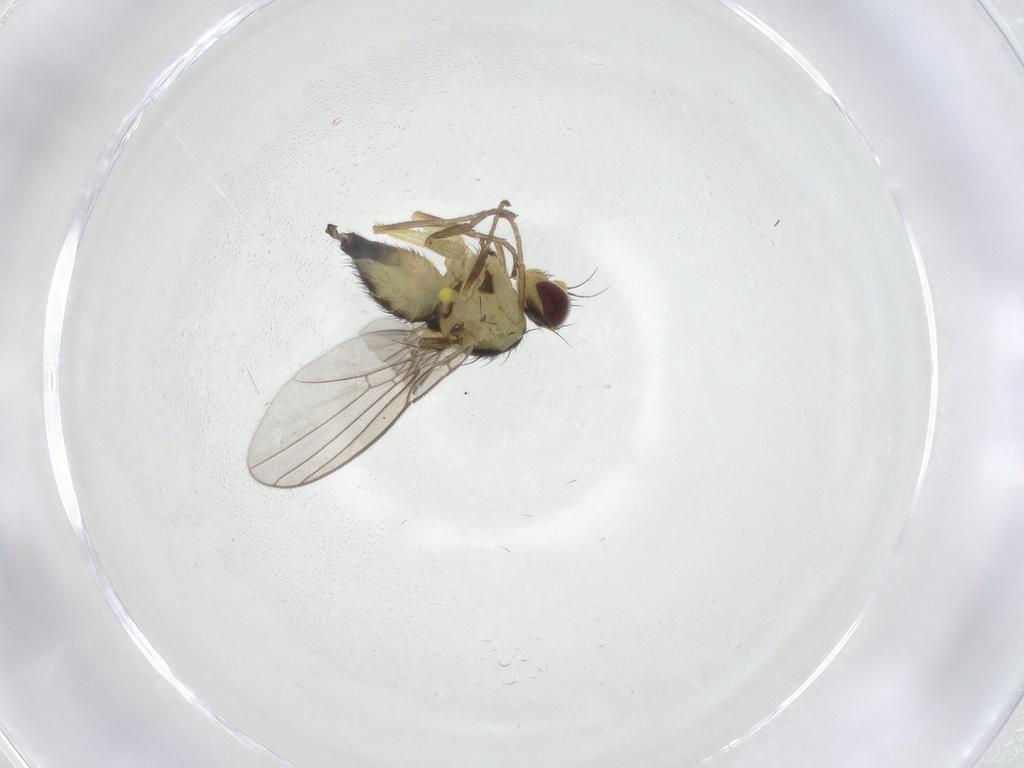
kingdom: Animalia
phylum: Arthropoda
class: Insecta
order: Diptera
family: Agromyzidae
